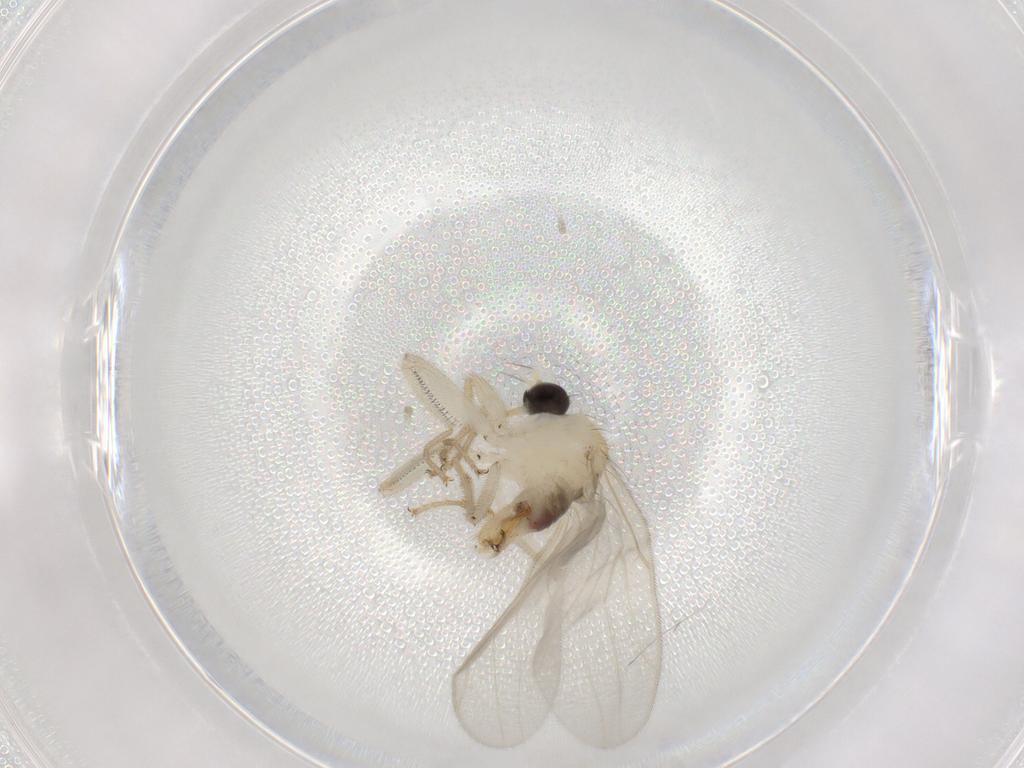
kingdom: Animalia
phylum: Arthropoda
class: Insecta
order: Diptera
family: Hybotidae
